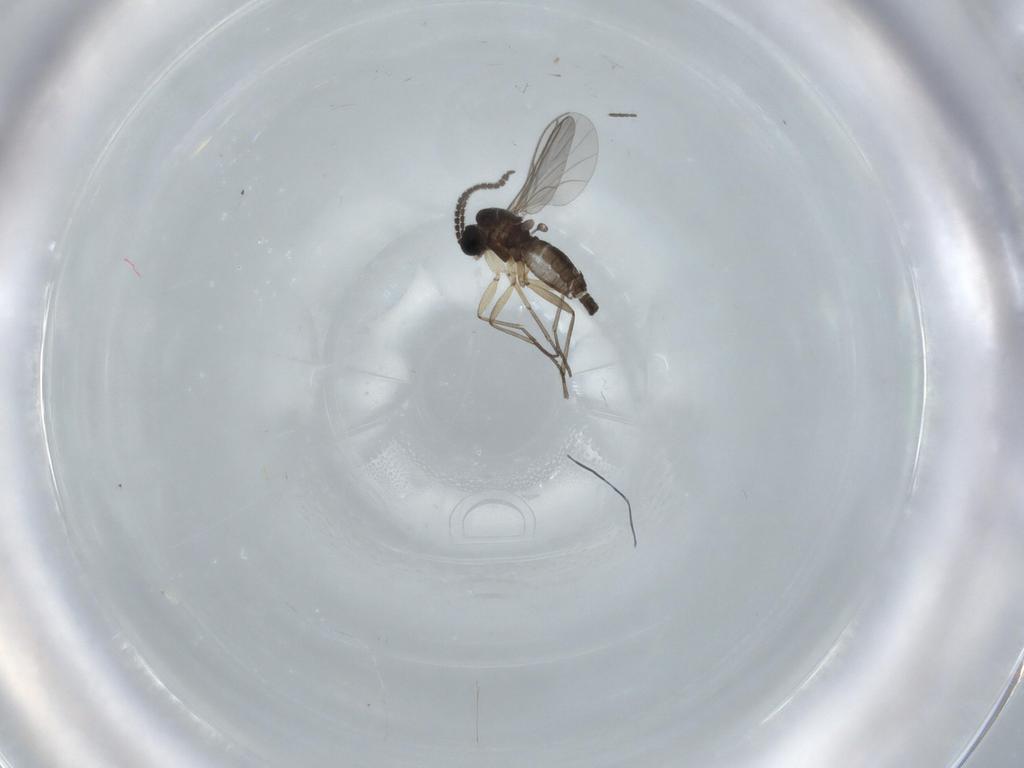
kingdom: Animalia
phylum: Arthropoda
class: Insecta
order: Diptera
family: Sciaridae
